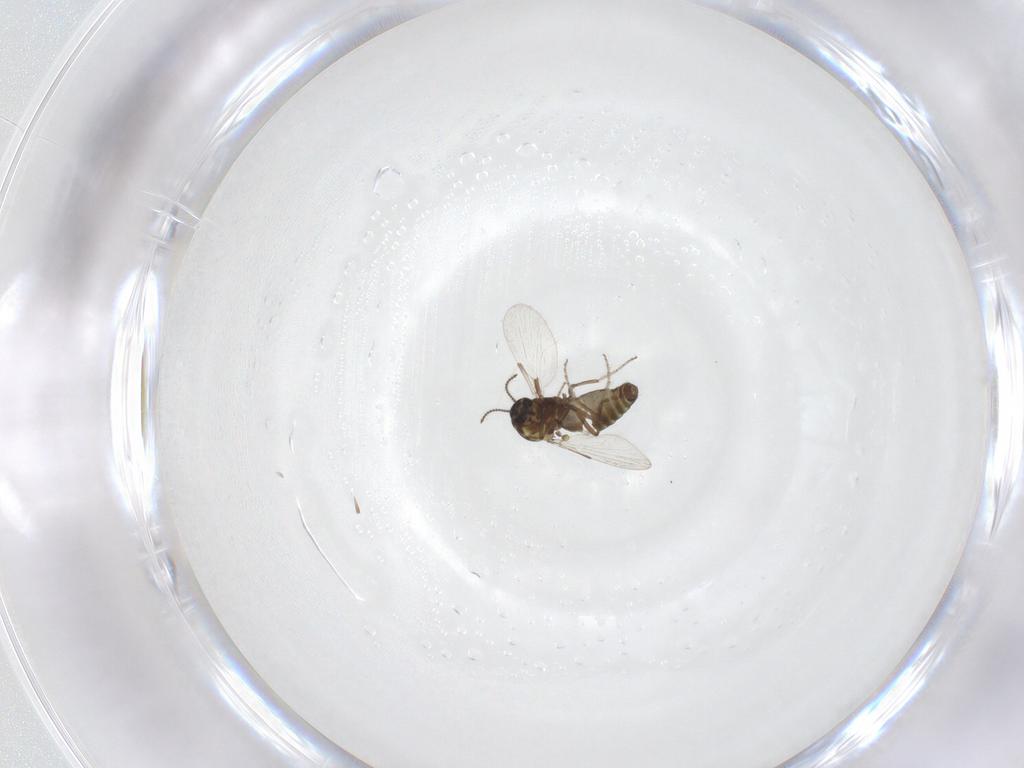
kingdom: Animalia
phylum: Arthropoda
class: Insecta
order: Diptera
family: Ceratopogonidae
